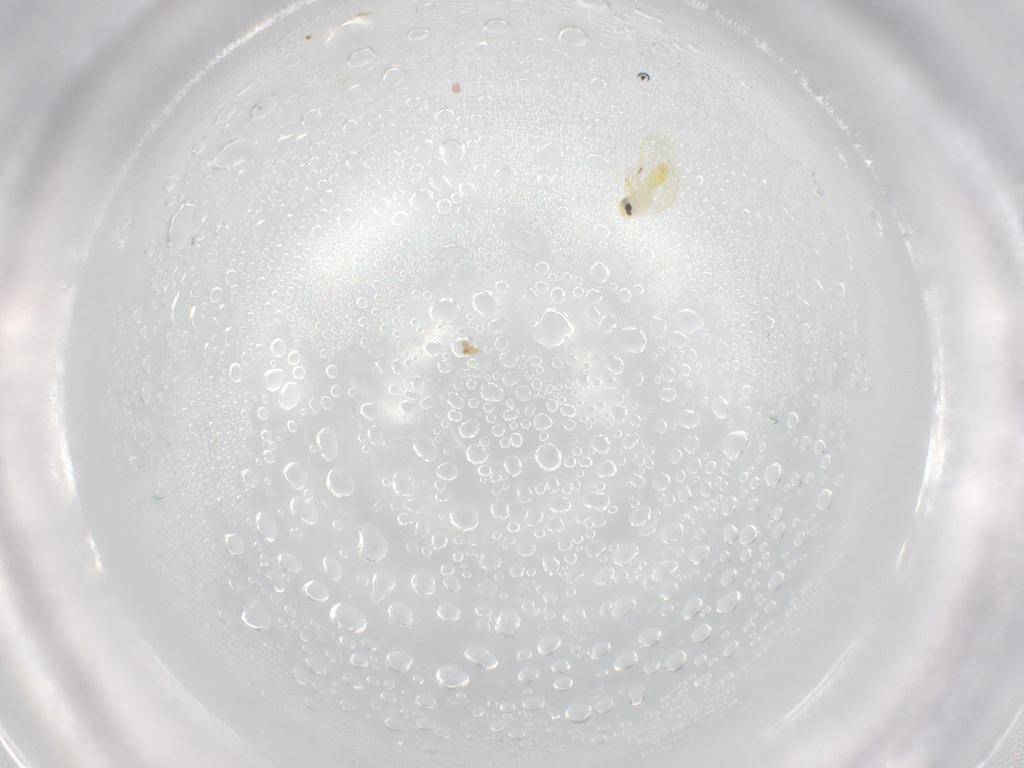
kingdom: Animalia
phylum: Arthropoda
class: Insecta
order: Hemiptera
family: Aleyrodidae
